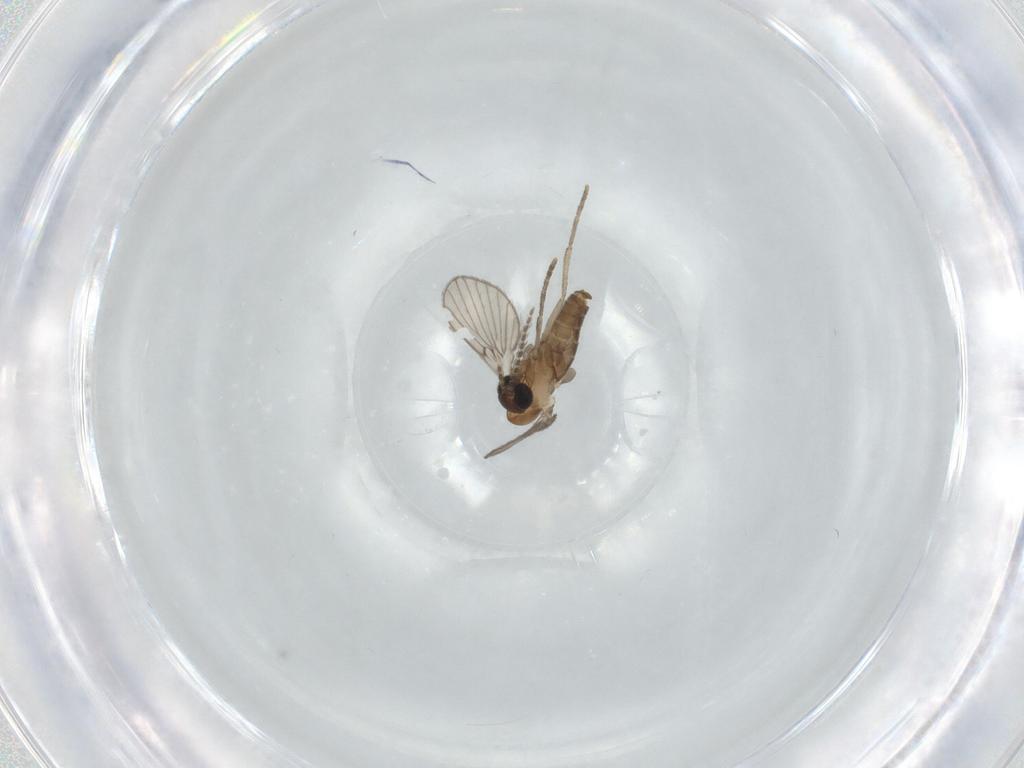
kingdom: Animalia
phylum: Arthropoda
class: Insecta
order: Diptera
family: Psychodidae
